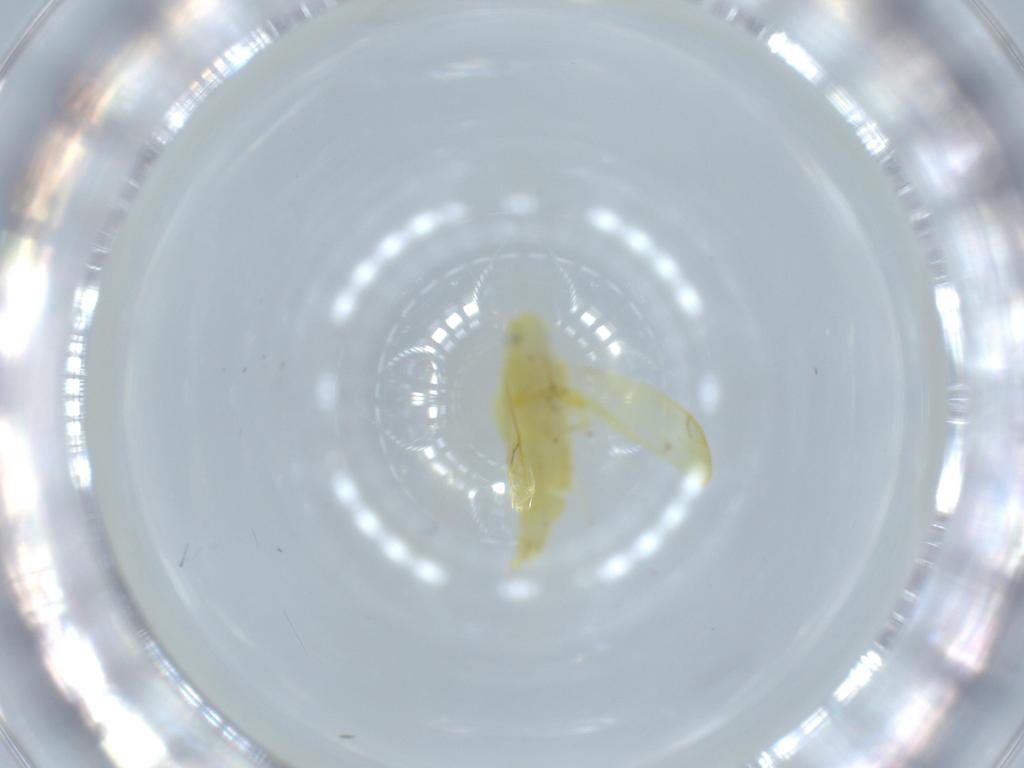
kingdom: Animalia
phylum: Arthropoda
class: Insecta
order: Hemiptera
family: Cicadellidae
